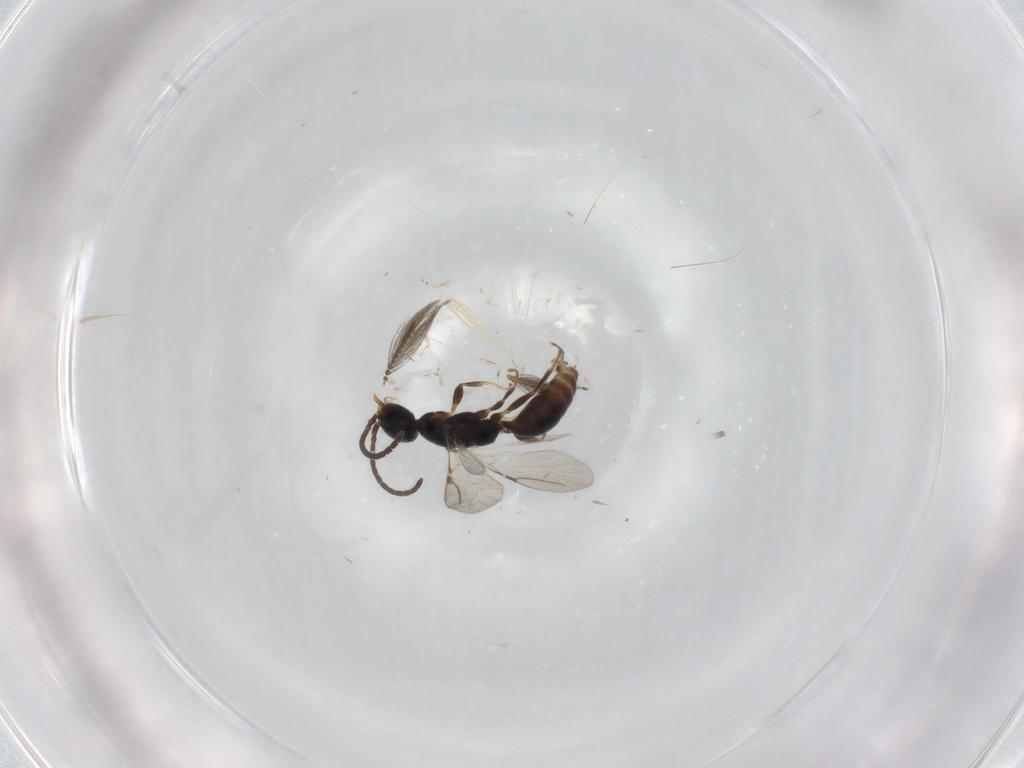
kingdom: Animalia
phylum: Arthropoda
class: Insecta
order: Hymenoptera
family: Bethylidae
